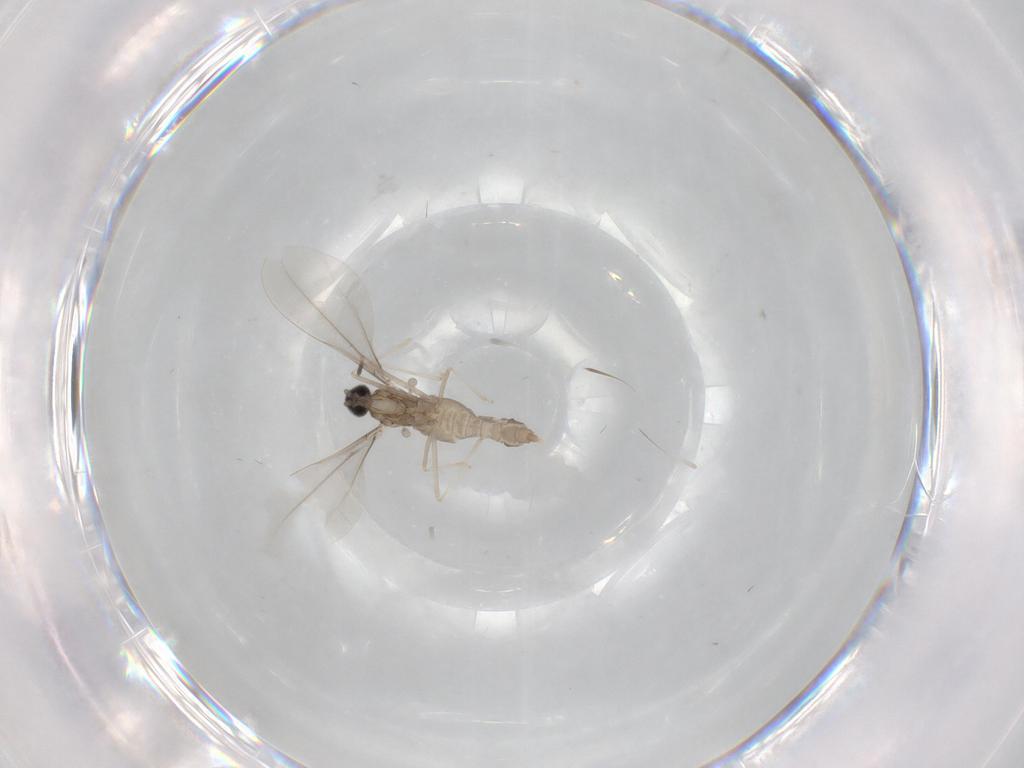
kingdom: Animalia
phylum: Arthropoda
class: Insecta
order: Diptera
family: Cecidomyiidae
